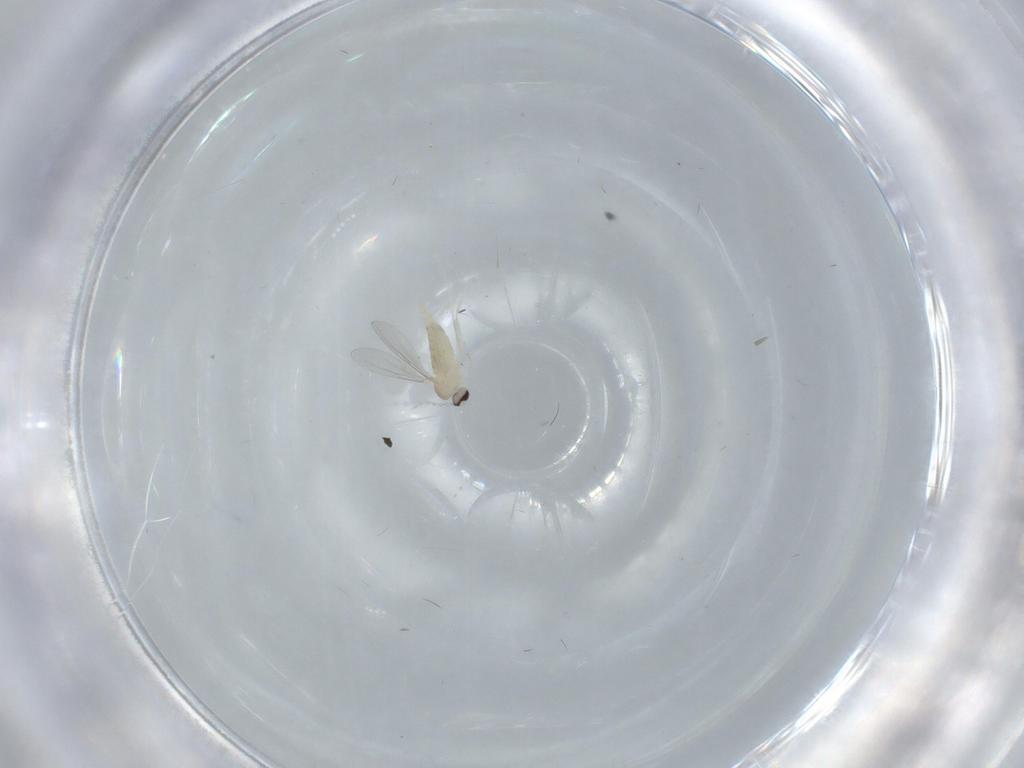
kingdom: Animalia
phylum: Arthropoda
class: Insecta
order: Diptera
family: Cecidomyiidae
